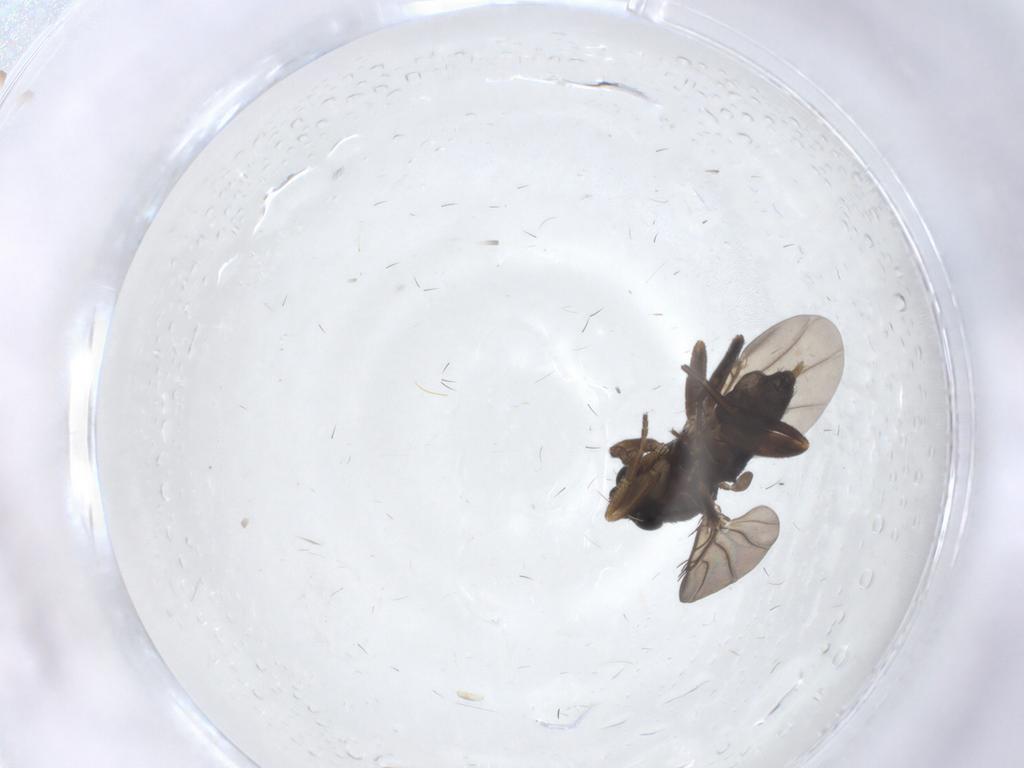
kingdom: Animalia
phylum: Arthropoda
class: Insecta
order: Diptera
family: Phoridae
